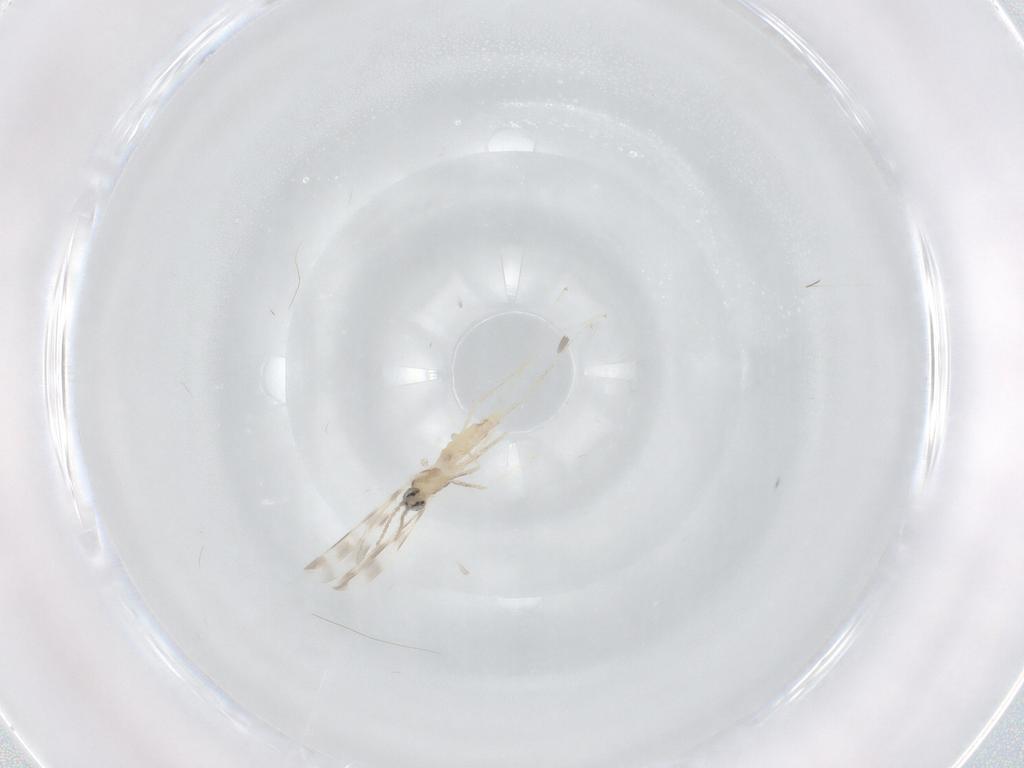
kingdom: Animalia
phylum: Arthropoda
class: Insecta
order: Diptera
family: Cecidomyiidae
